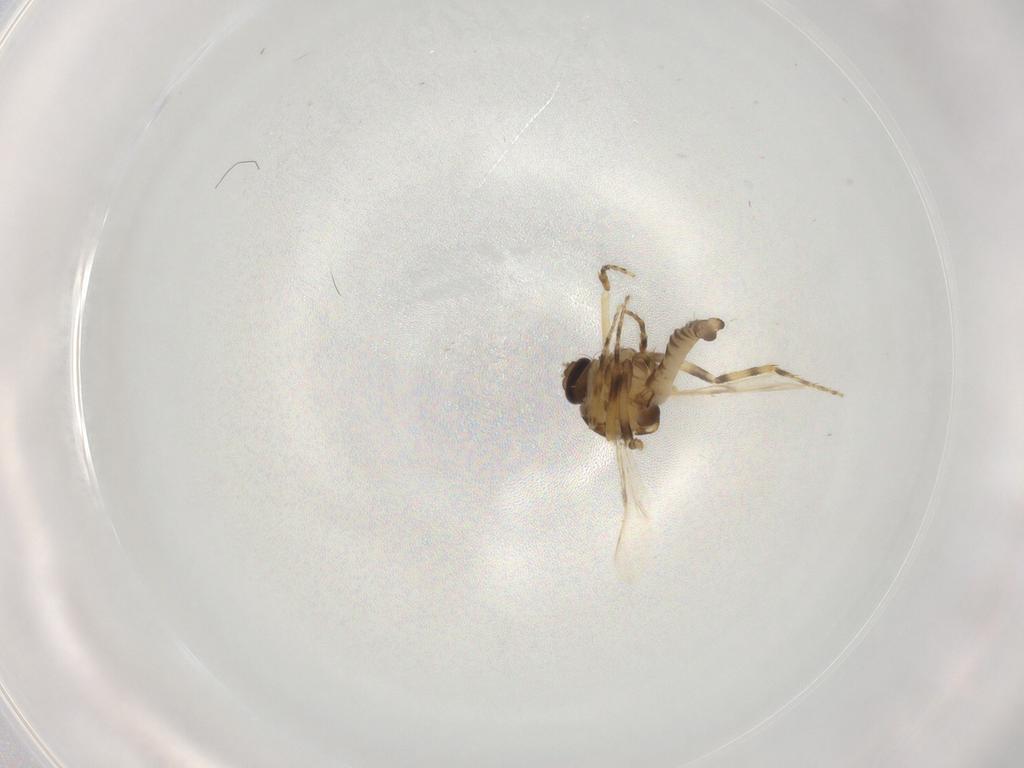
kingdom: Animalia
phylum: Arthropoda
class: Insecta
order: Diptera
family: Ceratopogonidae
